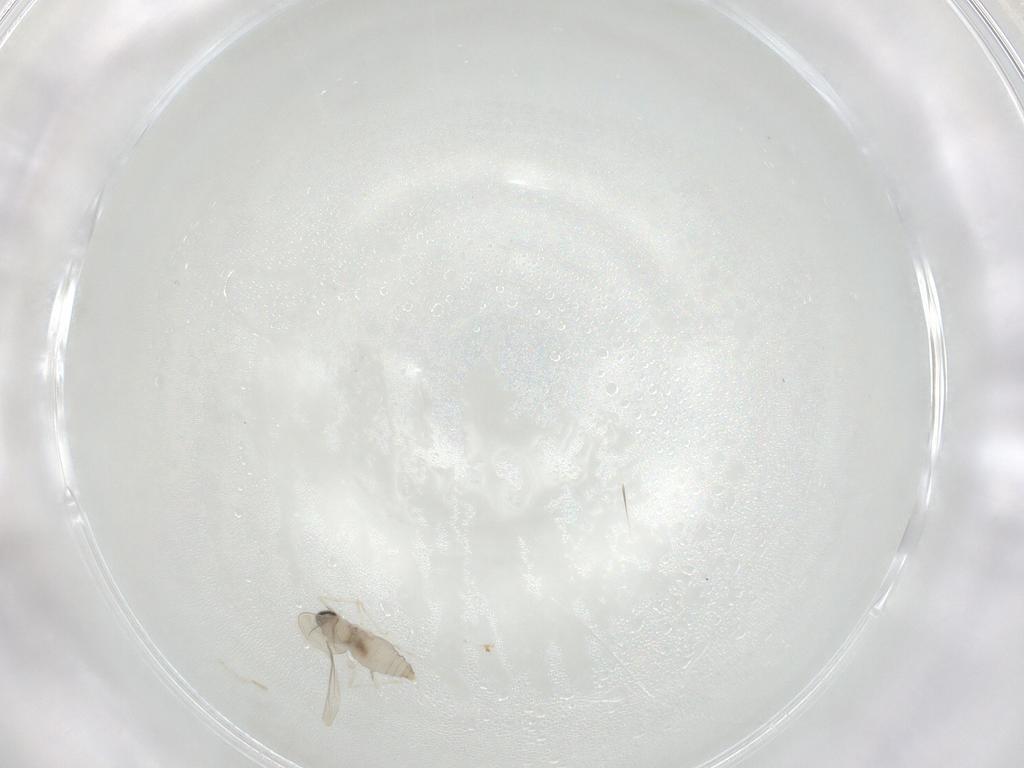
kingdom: Animalia
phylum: Arthropoda
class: Insecta
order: Diptera
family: Cecidomyiidae
